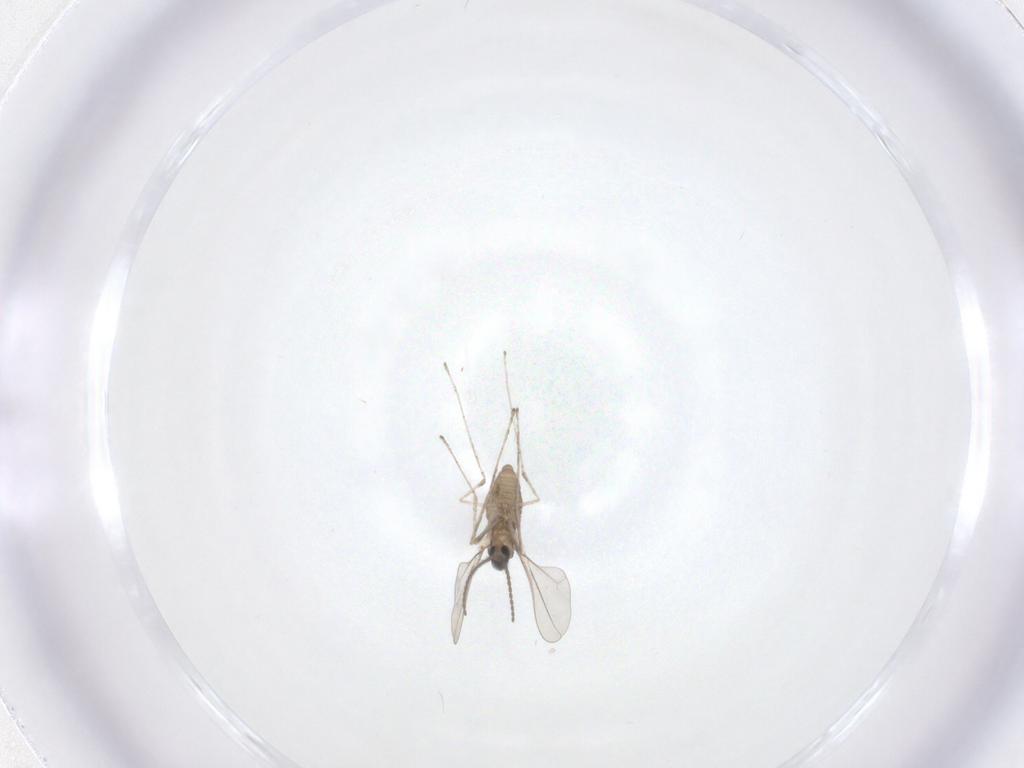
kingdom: Animalia
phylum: Arthropoda
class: Insecta
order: Diptera
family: Cecidomyiidae
